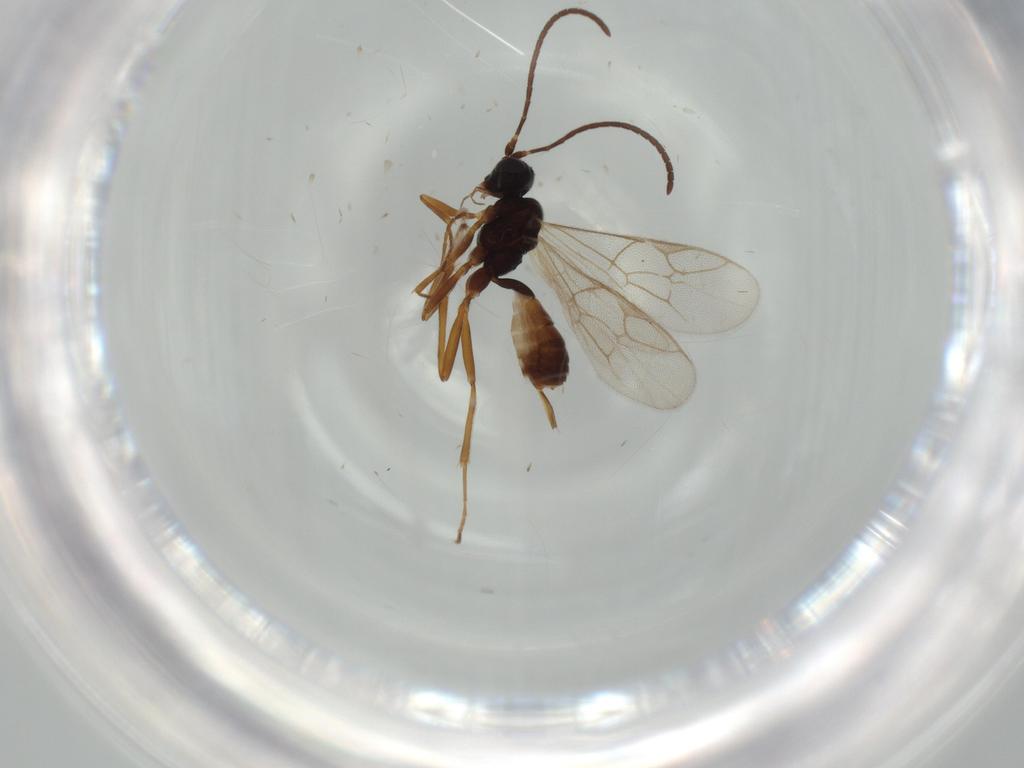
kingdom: Animalia
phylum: Arthropoda
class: Insecta
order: Hymenoptera
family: Ichneumonidae
